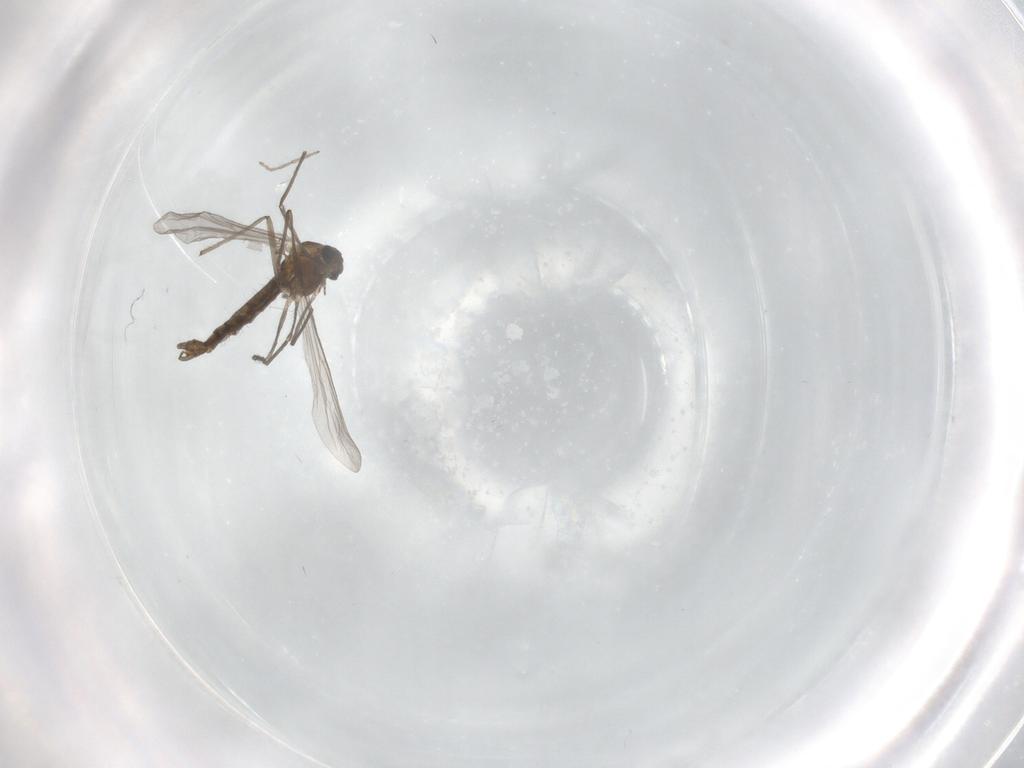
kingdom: Animalia
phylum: Arthropoda
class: Insecta
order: Diptera
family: Chironomidae
